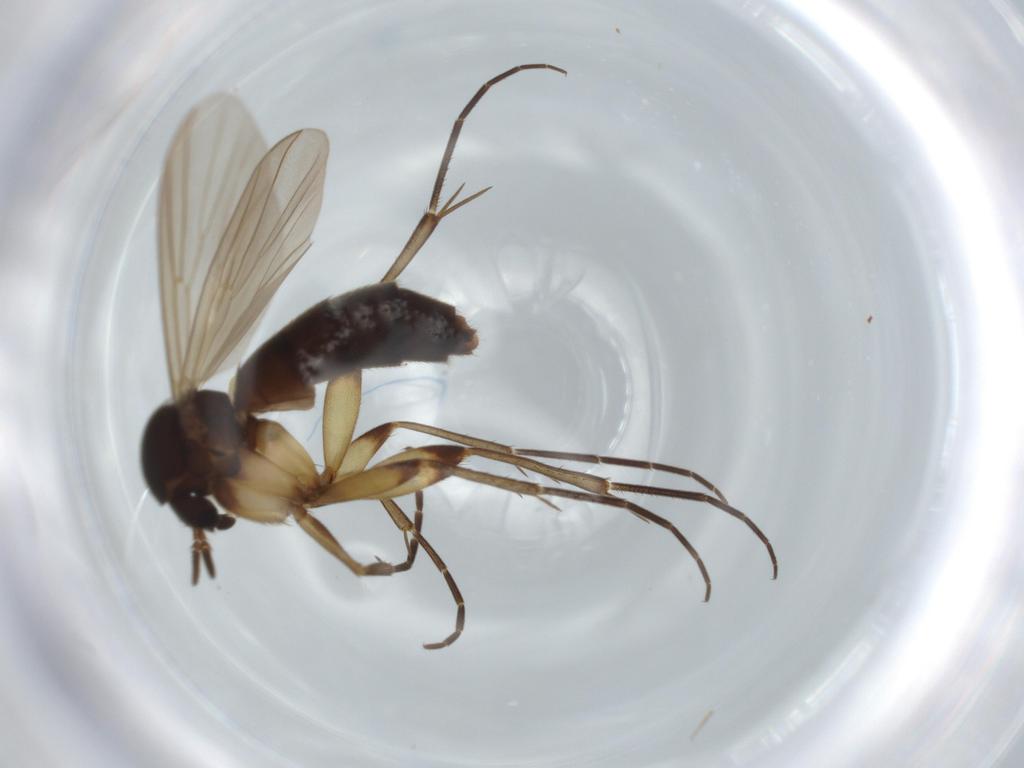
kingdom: Animalia
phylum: Arthropoda
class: Insecta
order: Diptera
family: Mycetophilidae
